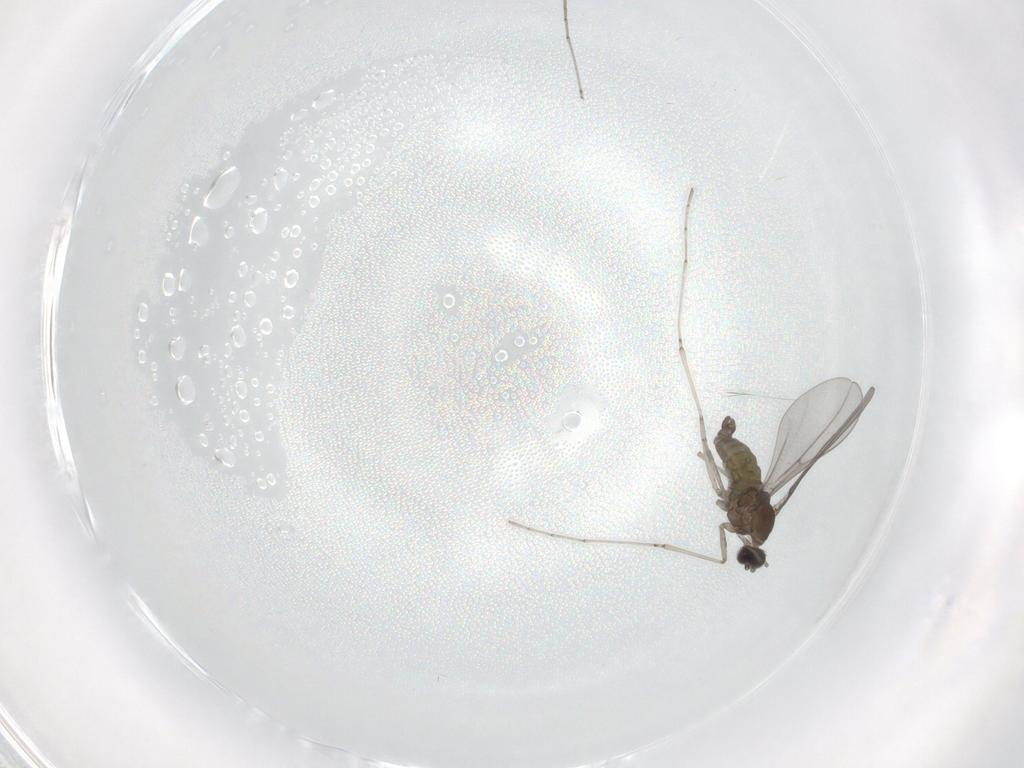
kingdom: Animalia
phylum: Arthropoda
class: Insecta
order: Diptera
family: Cecidomyiidae
